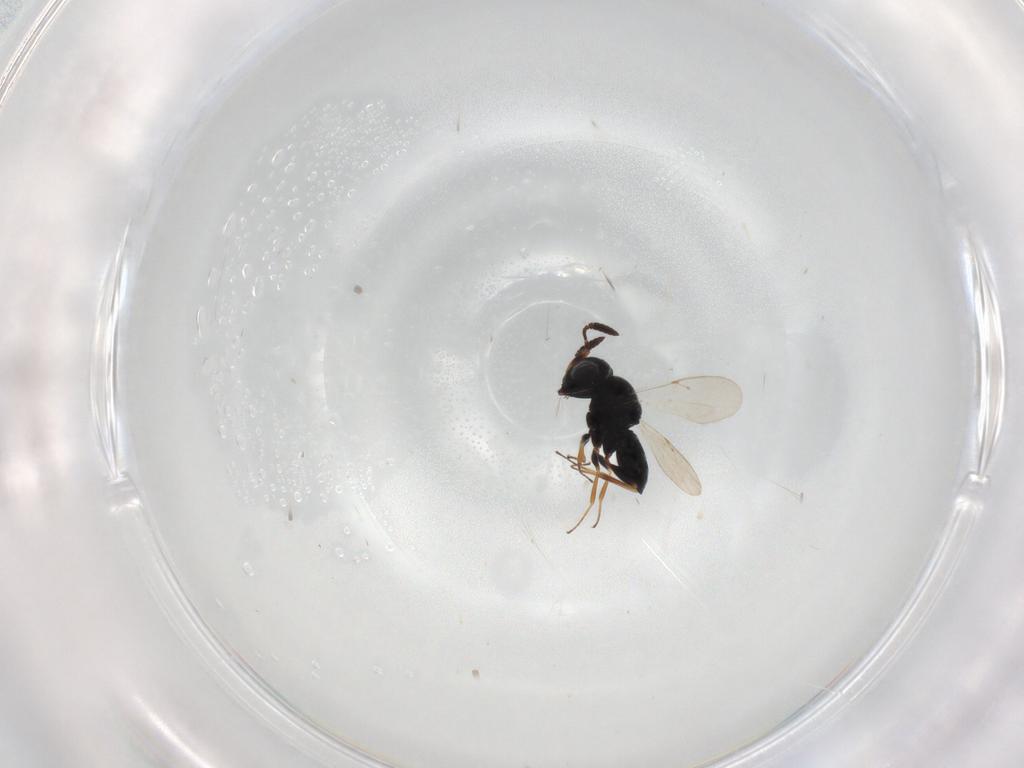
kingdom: Animalia
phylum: Arthropoda
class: Insecta
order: Coleoptera
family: Curculionidae
